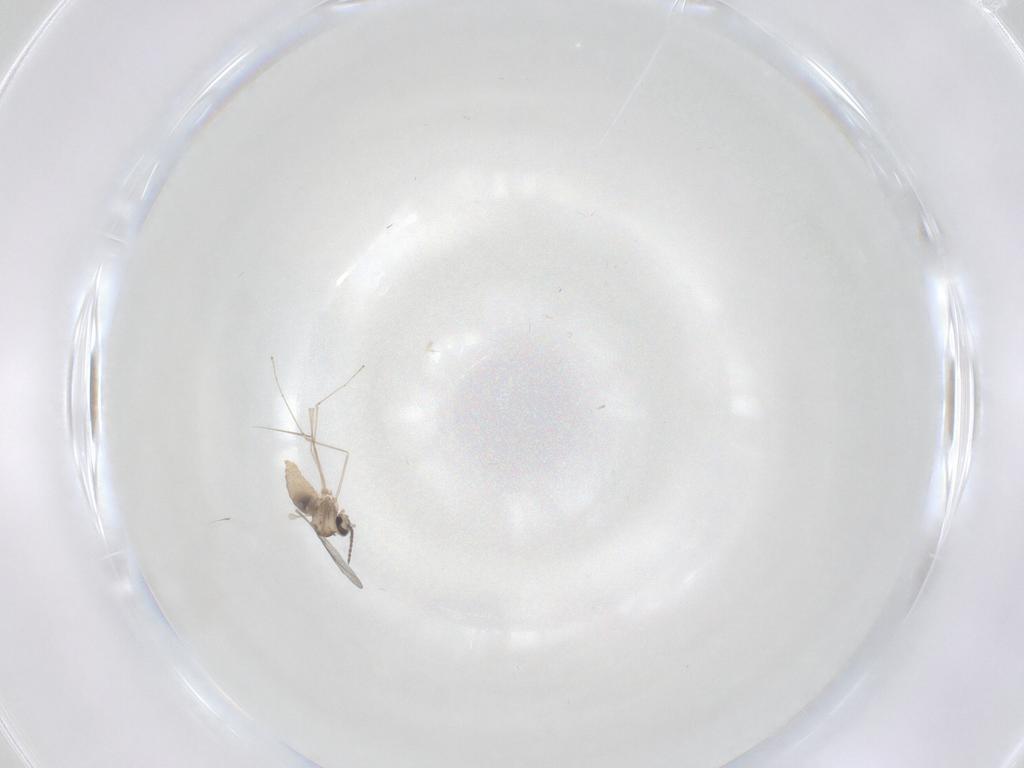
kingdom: Animalia
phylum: Arthropoda
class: Insecta
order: Diptera
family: Cecidomyiidae
